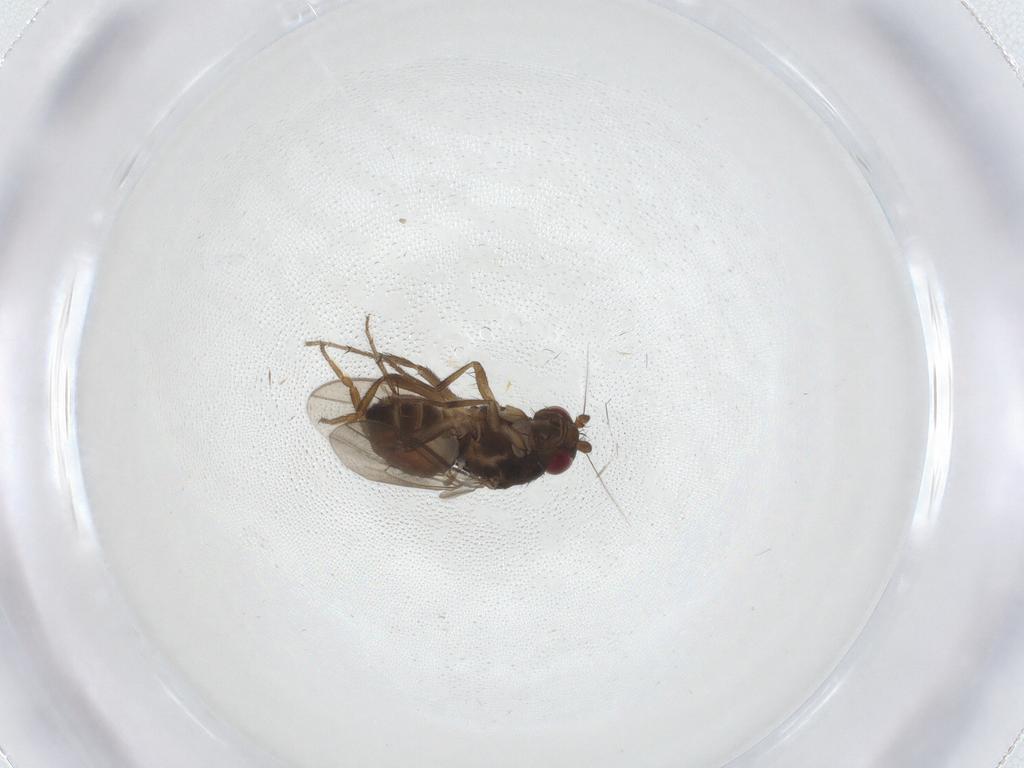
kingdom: Animalia
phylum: Arthropoda
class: Insecta
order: Diptera
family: Sphaeroceridae
